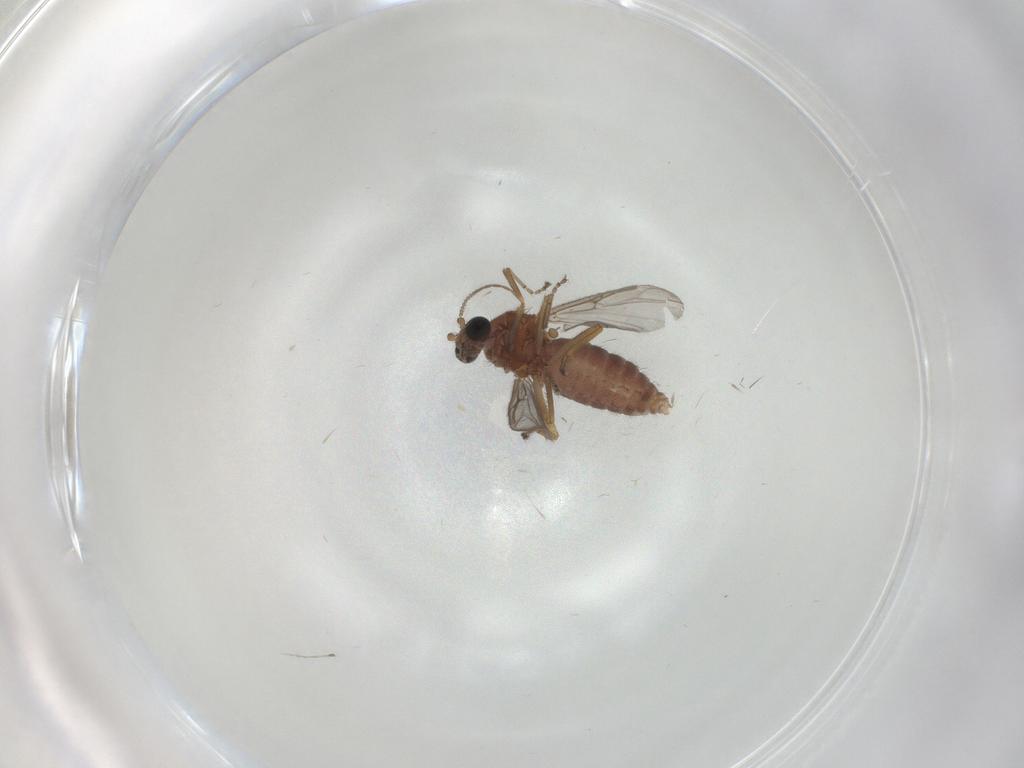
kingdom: Animalia
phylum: Arthropoda
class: Insecta
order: Diptera
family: Ceratopogonidae
